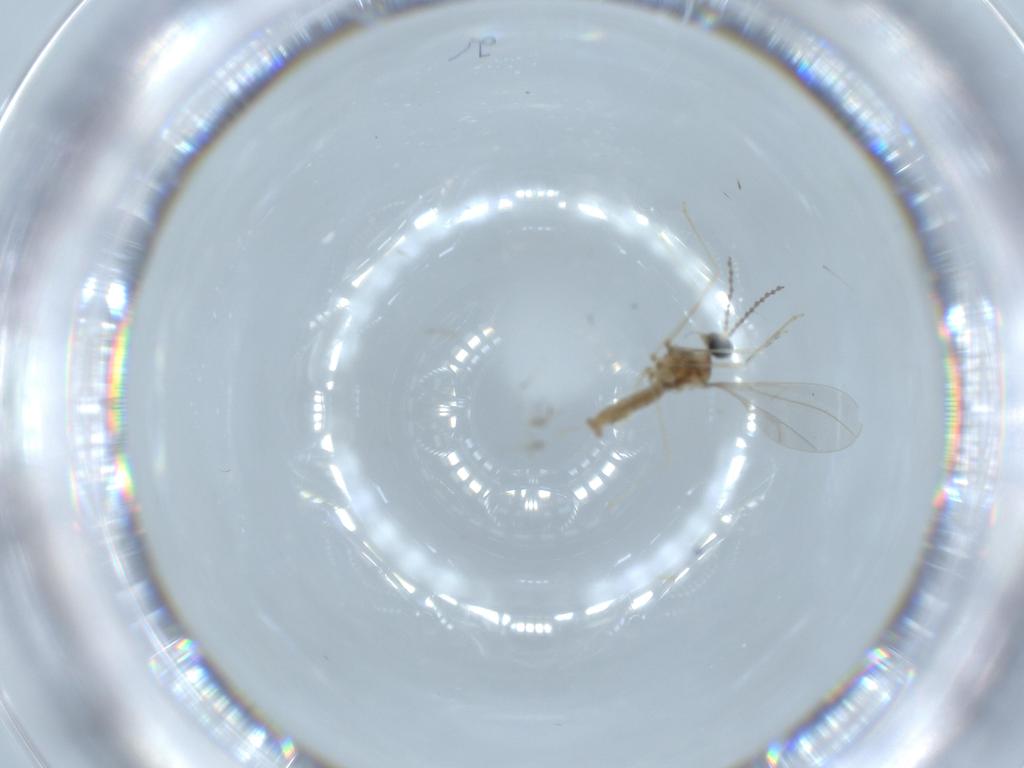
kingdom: Animalia
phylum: Arthropoda
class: Insecta
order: Diptera
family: Cecidomyiidae
